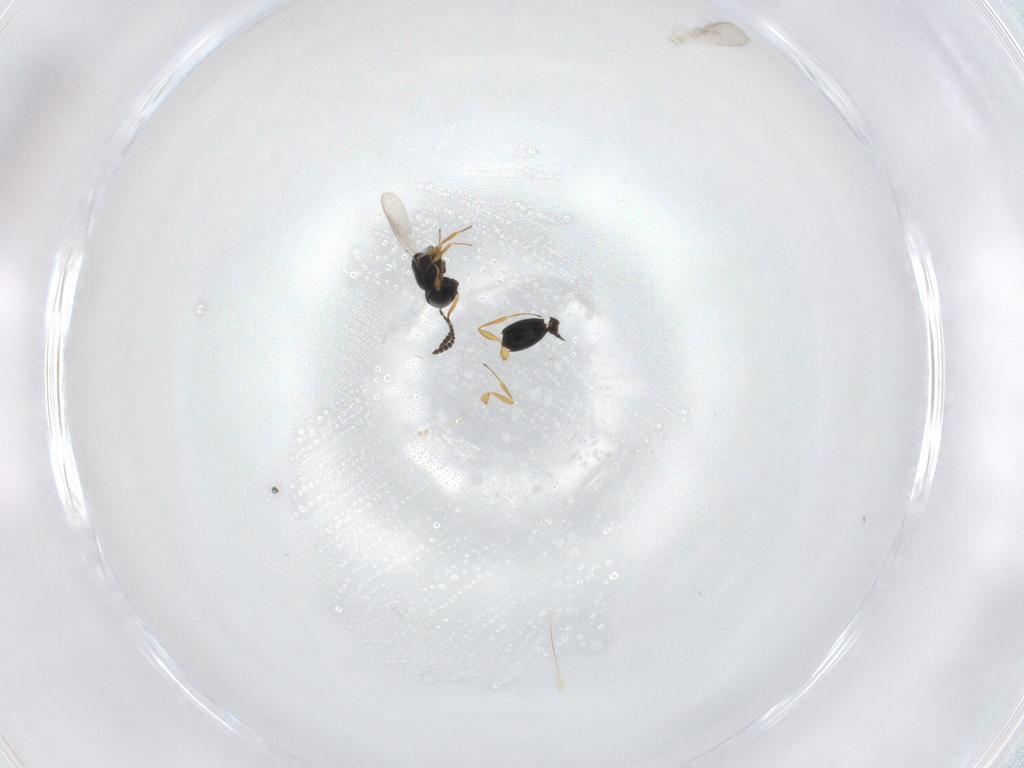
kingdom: Animalia
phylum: Arthropoda
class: Insecta
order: Hymenoptera
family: Scelionidae
